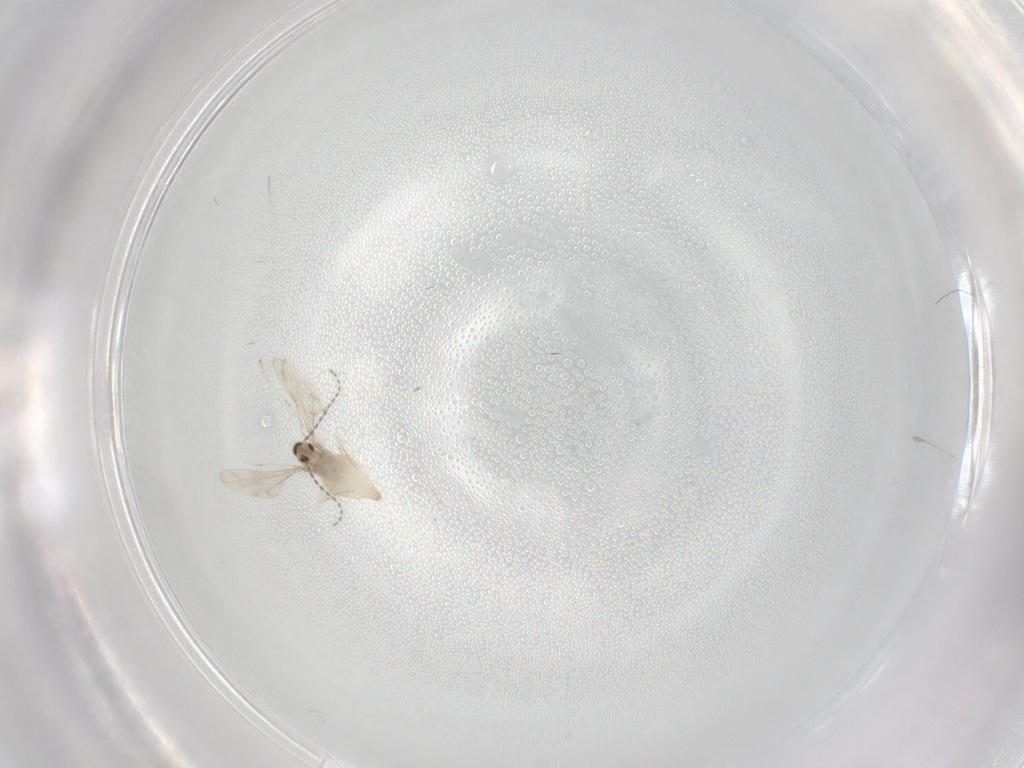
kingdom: Animalia
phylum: Arthropoda
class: Insecta
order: Diptera
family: Cecidomyiidae
